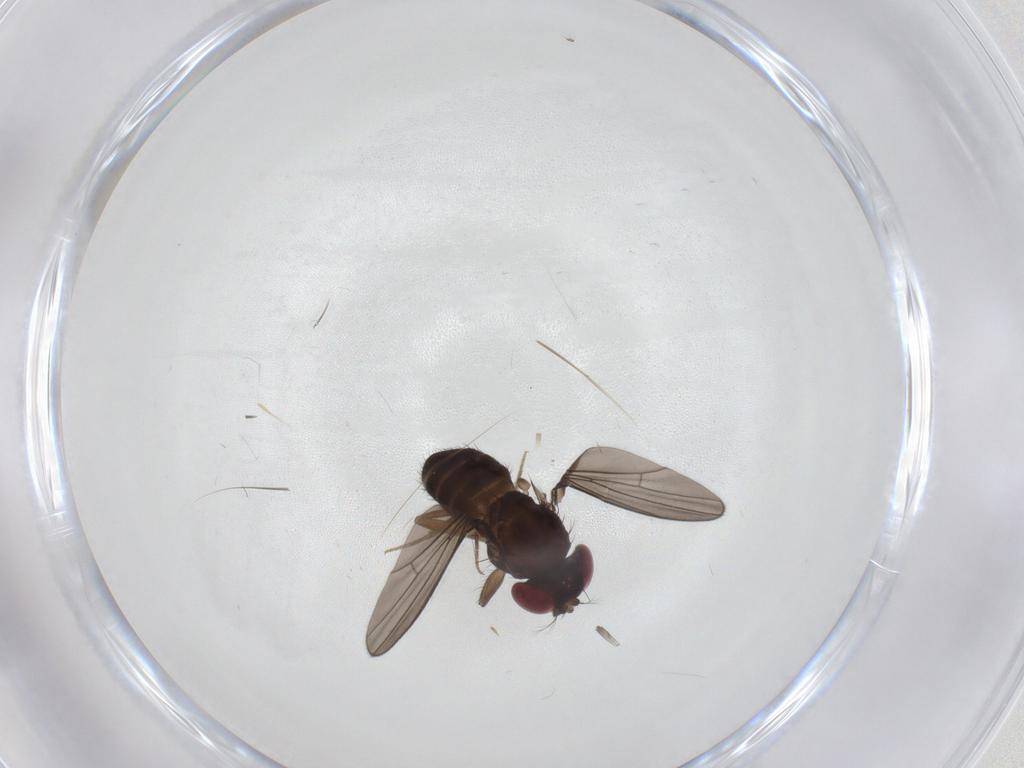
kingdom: Animalia
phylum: Arthropoda
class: Insecta
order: Diptera
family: Drosophilidae
